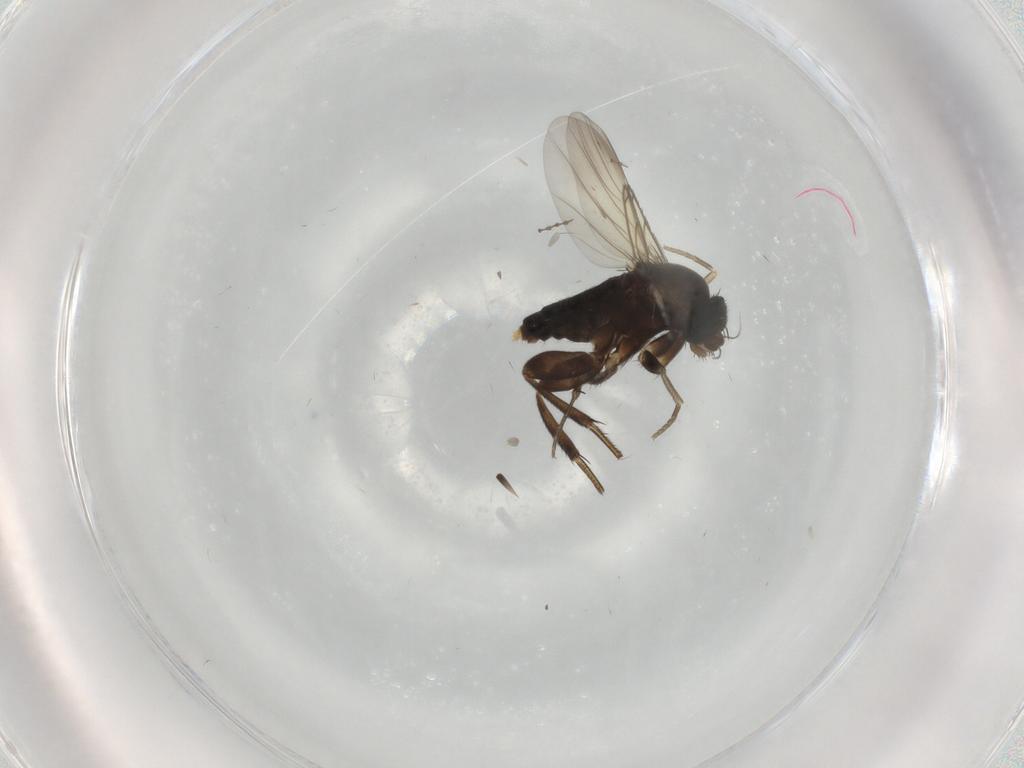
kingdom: Animalia
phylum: Arthropoda
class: Insecta
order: Diptera
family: Phoridae
